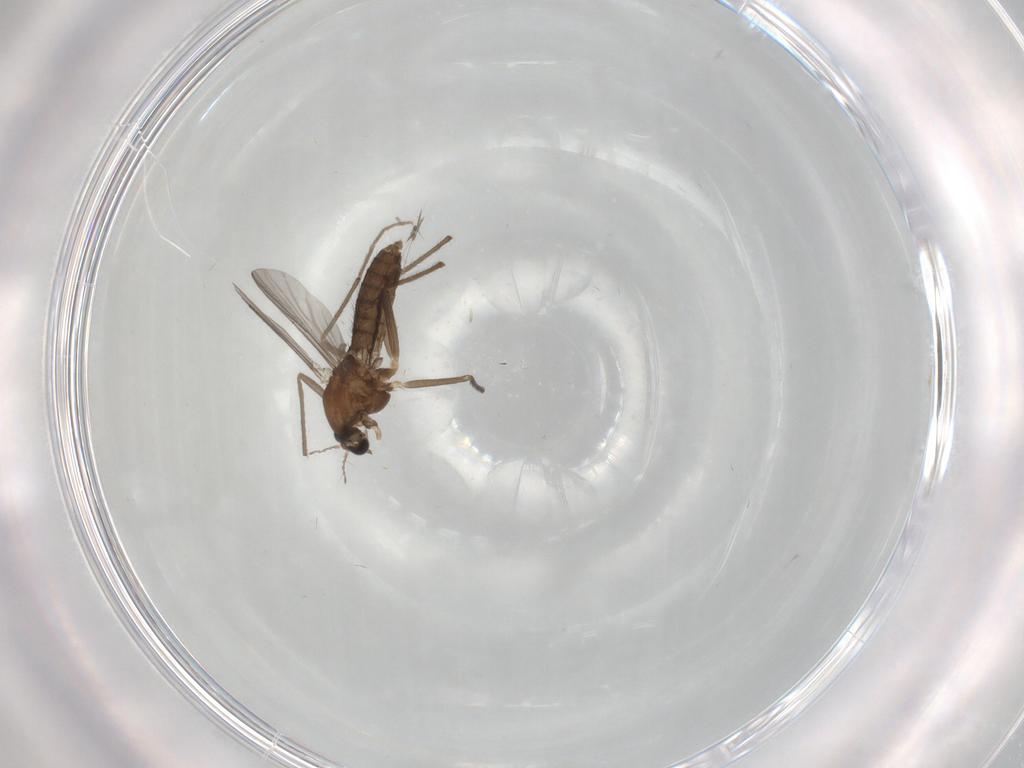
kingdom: Animalia
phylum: Arthropoda
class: Insecta
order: Diptera
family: Chironomidae
